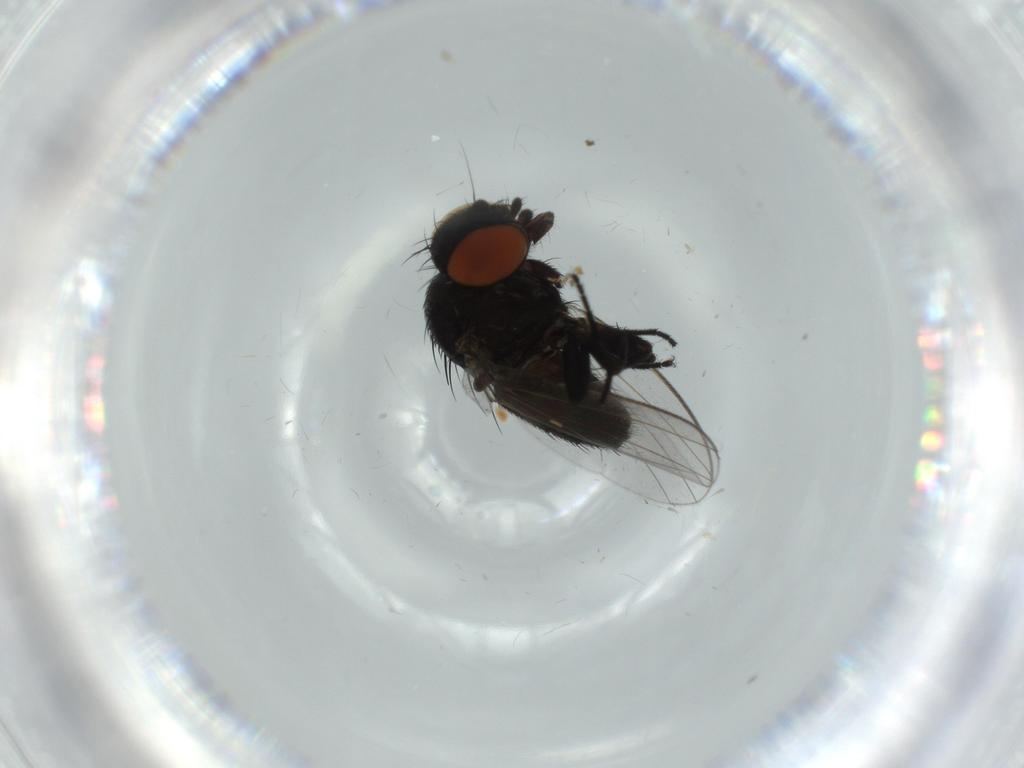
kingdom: Animalia
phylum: Arthropoda
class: Insecta
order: Diptera
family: Milichiidae
